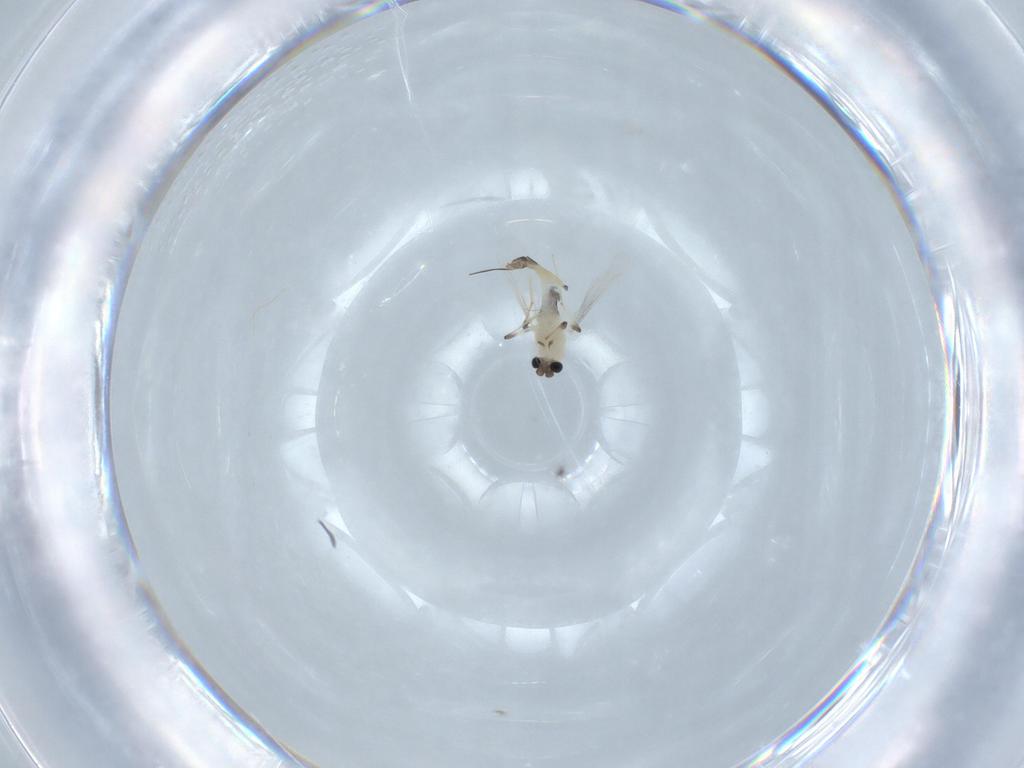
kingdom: Animalia
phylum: Arthropoda
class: Insecta
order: Diptera
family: Chironomidae
